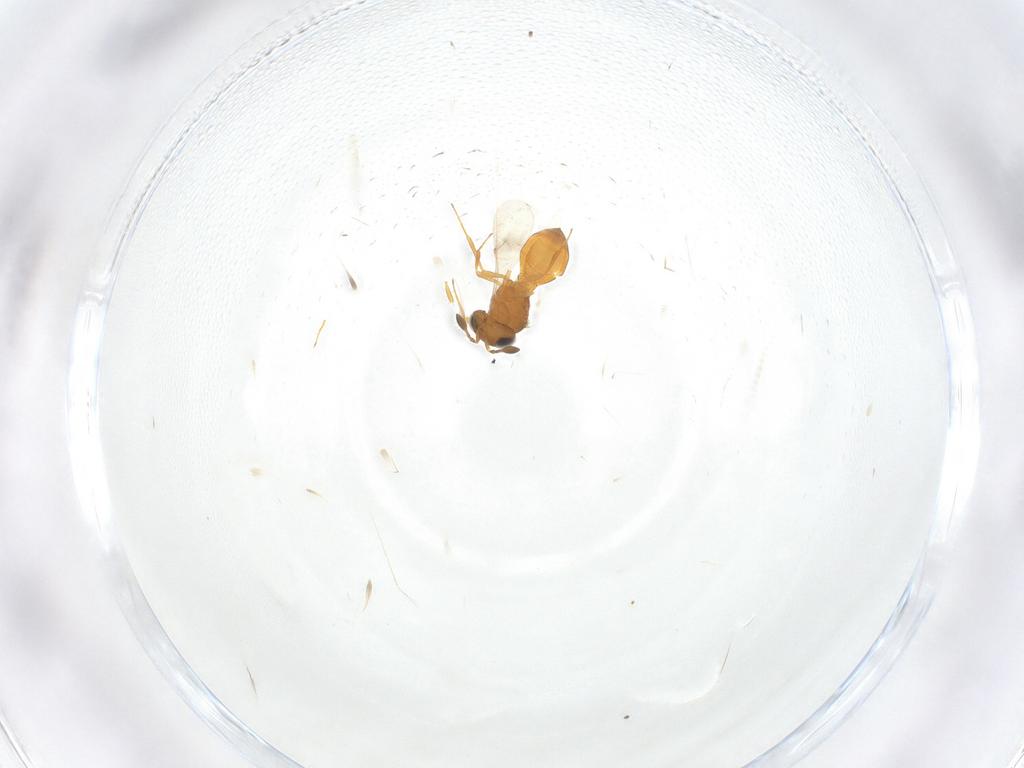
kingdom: Animalia
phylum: Arthropoda
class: Insecta
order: Hymenoptera
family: Scelionidae
